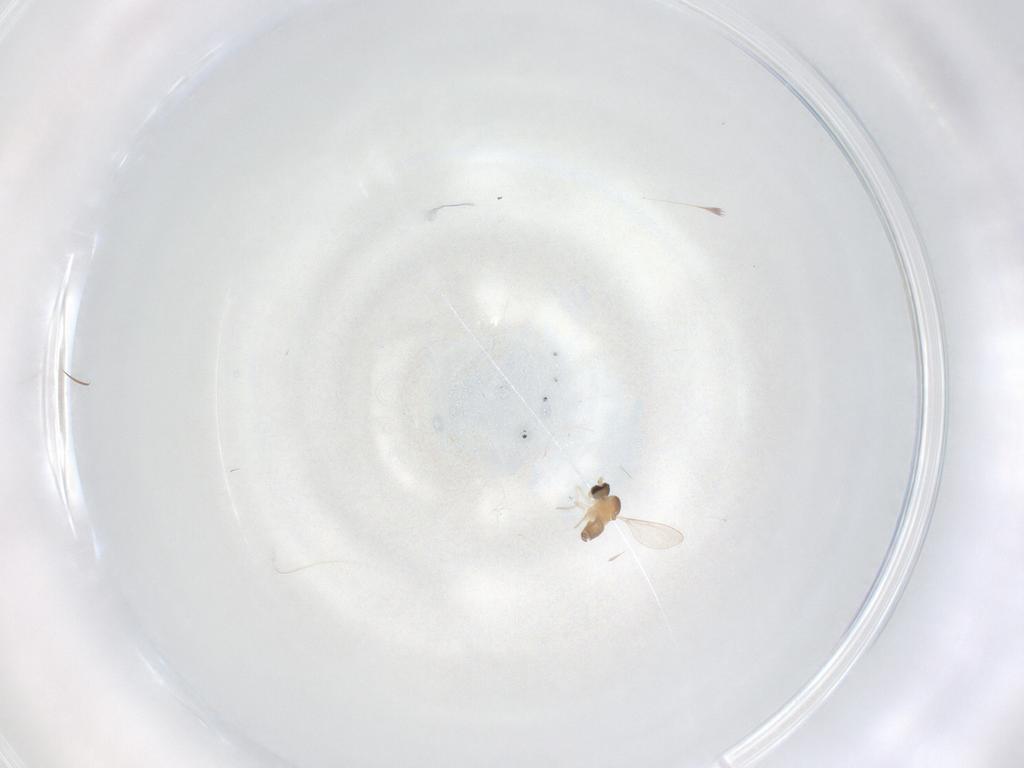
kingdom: Animalia
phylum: Arthropoda
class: Insecta
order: Diptera
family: Cecidomyiidae
